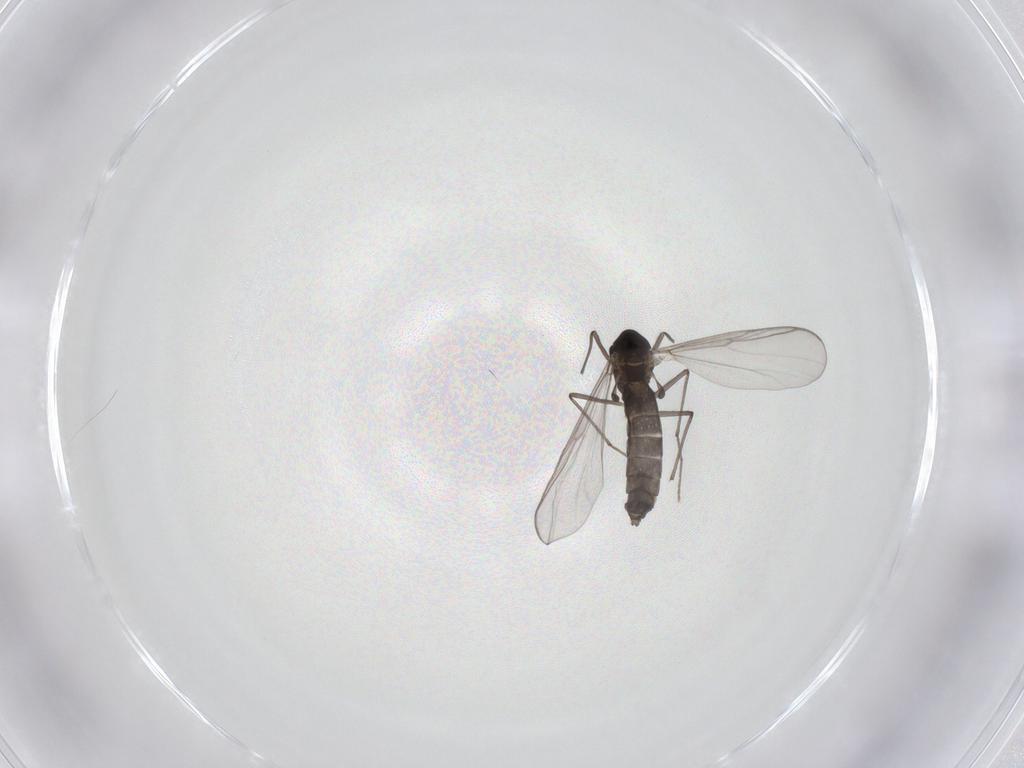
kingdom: Animalia
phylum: Arthropoda
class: Insecta
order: Diptera
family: Chironomidae
